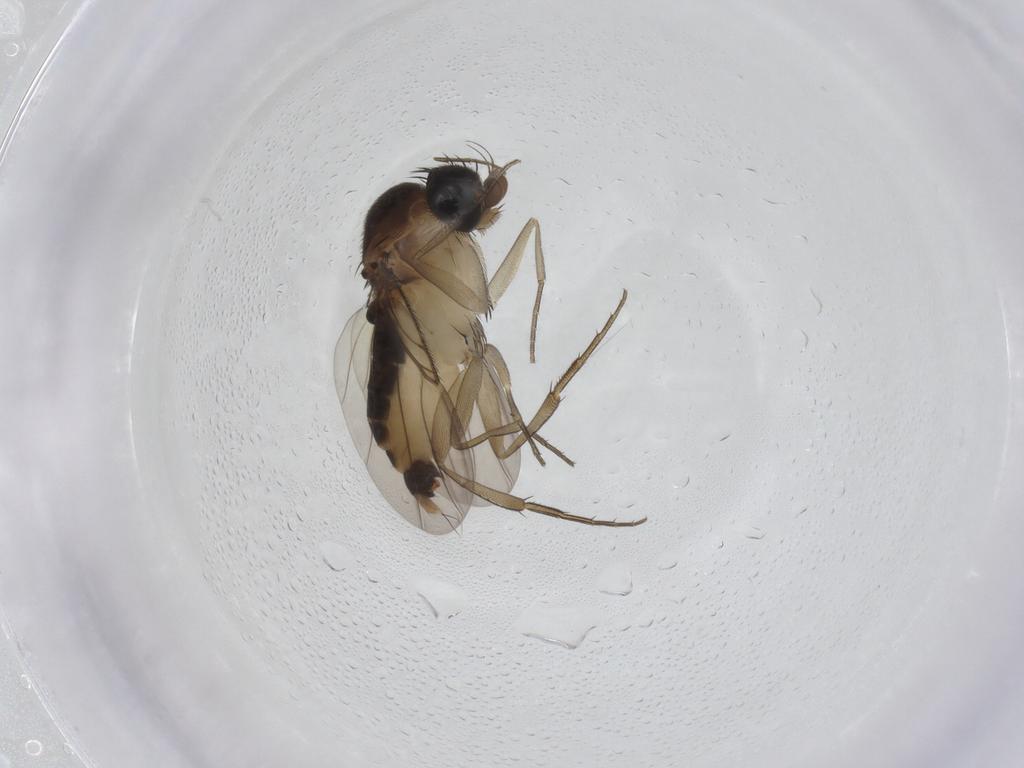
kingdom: Animalia
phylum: Arthropoda
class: Insecta
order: Diptera
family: Phoridae
